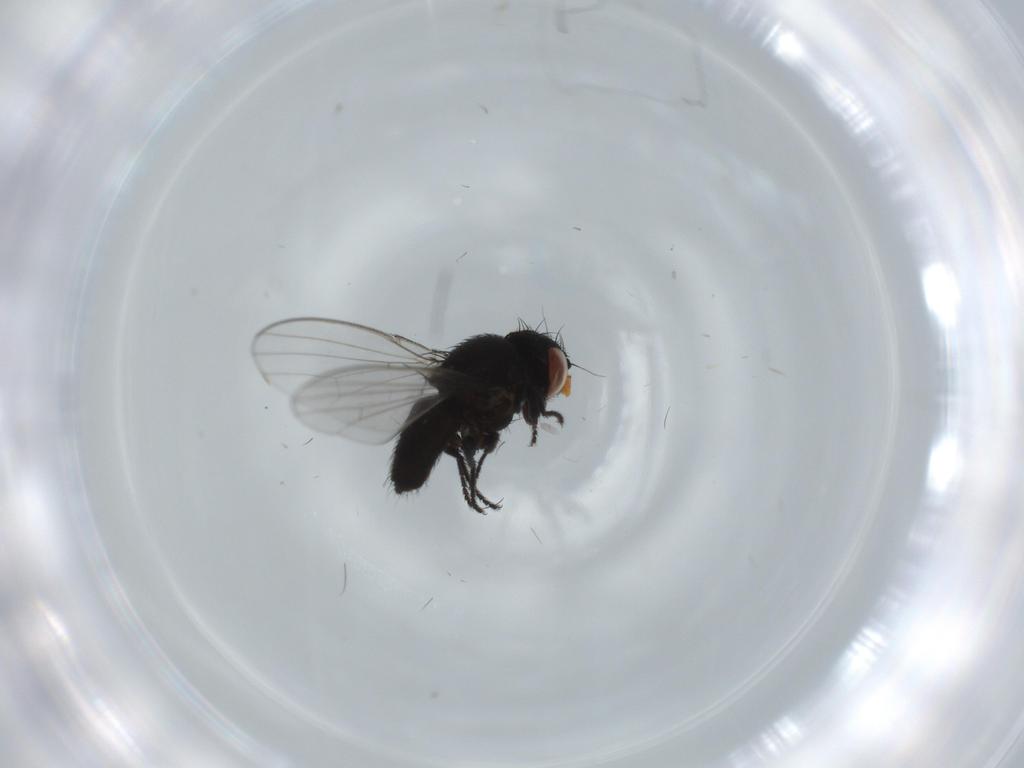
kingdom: Animalia
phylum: Arthropoda
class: Insecta
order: Diptera
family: Milichiidae
